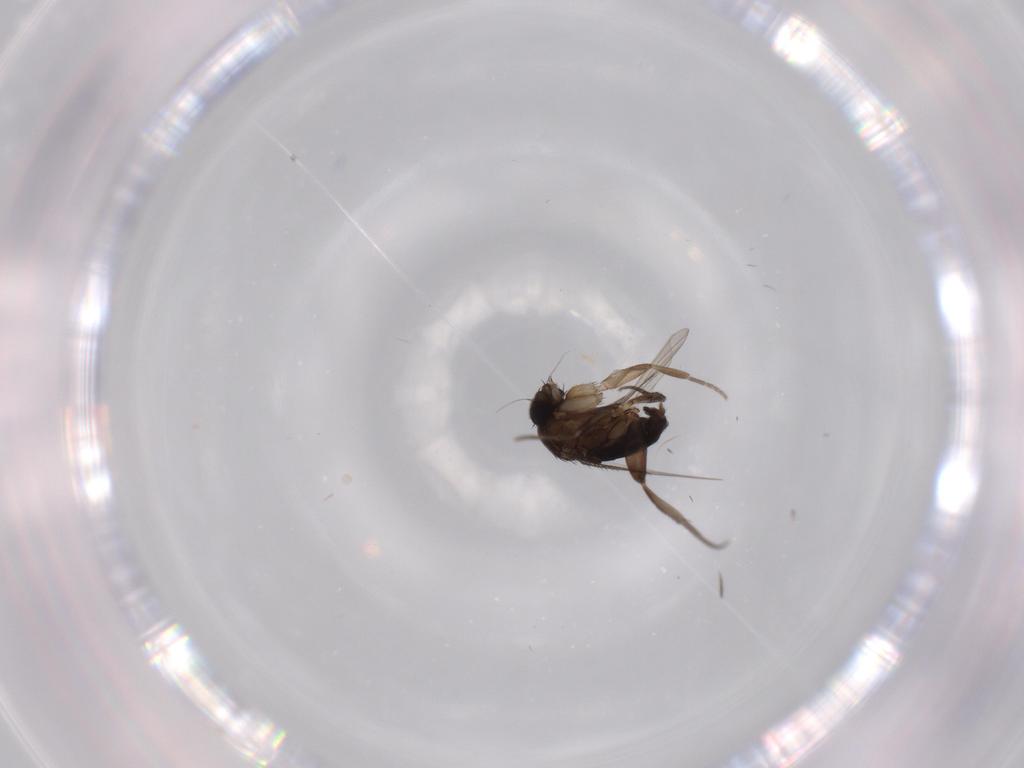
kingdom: Animalia
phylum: Arthropoda
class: Insecta
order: Diptera
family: Phoridae
